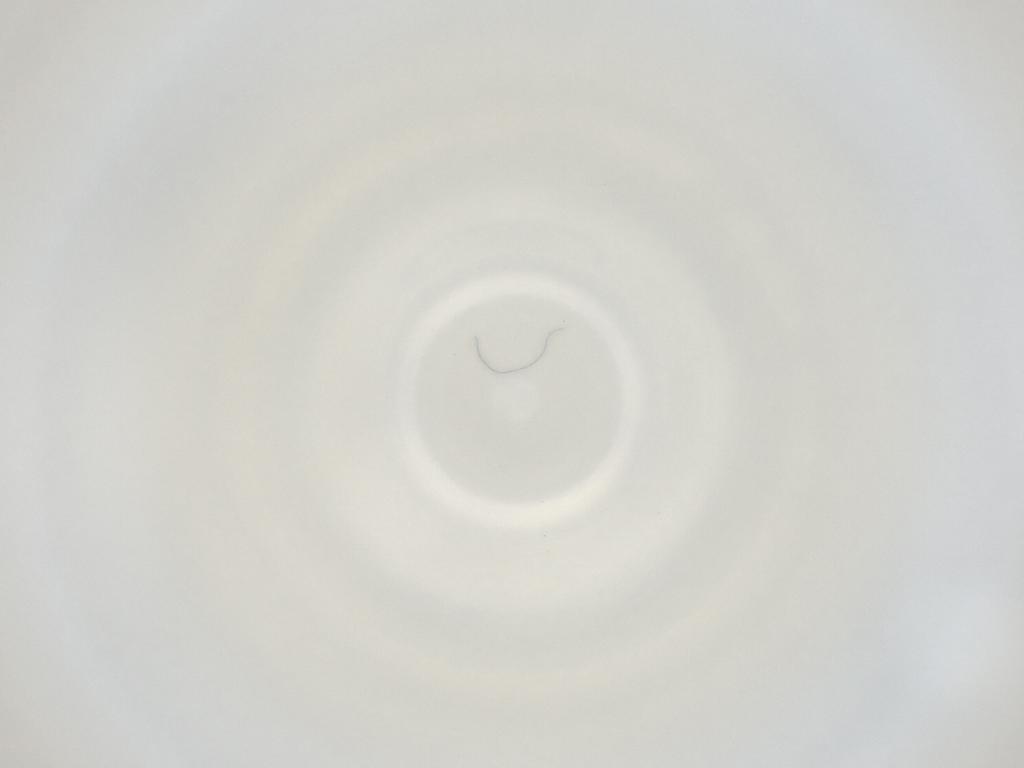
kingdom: Animalia
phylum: Arthropoda
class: Insecta
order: Diptera
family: Cecidomyiidae
